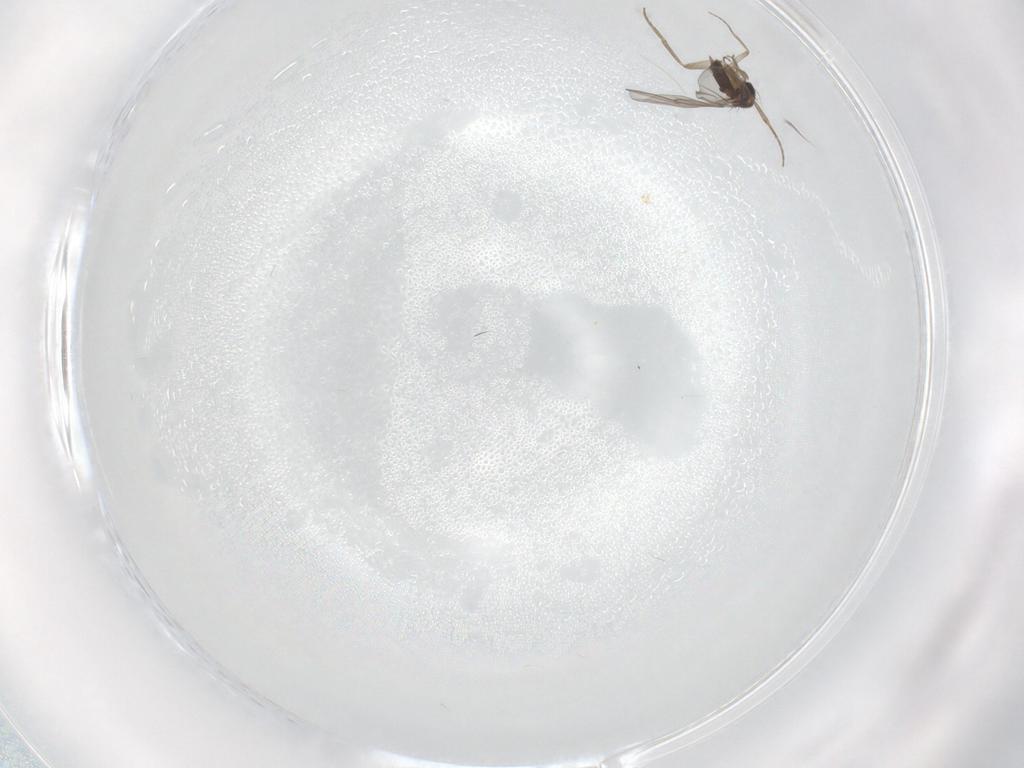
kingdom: Animalia
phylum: Arthropoda
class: Insecta
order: Diptera
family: Phoridae
